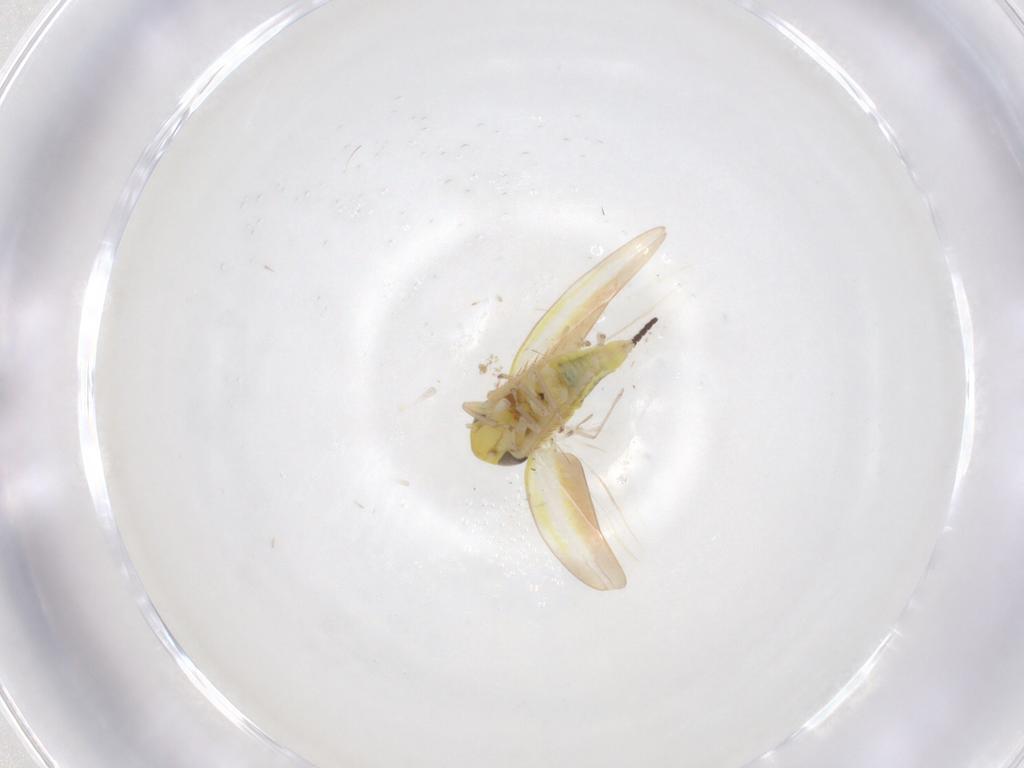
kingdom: Animalia
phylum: Arthropoda
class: Insecta
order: Hemiptera
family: Cicadellidae
